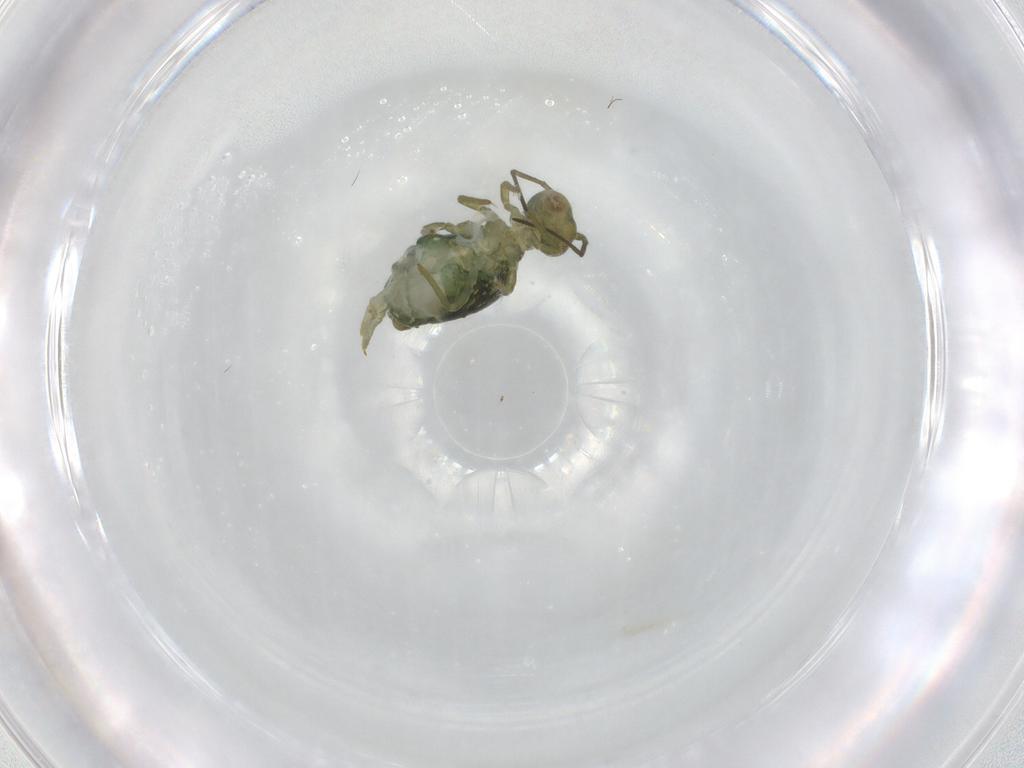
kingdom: Animalia
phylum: Arthropoda
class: Collembola
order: Symphypleona
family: Sminthuridae
